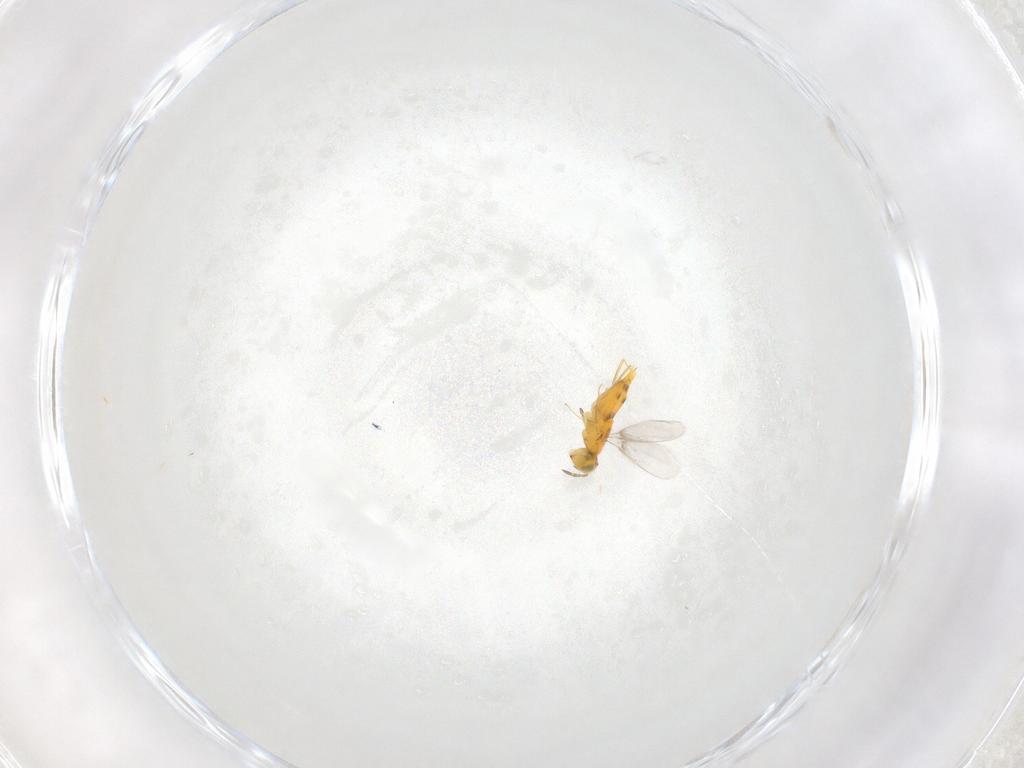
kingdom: Animalia
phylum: Arthropoda
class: Insecta
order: Hymenoptera
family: Aphelinidae
